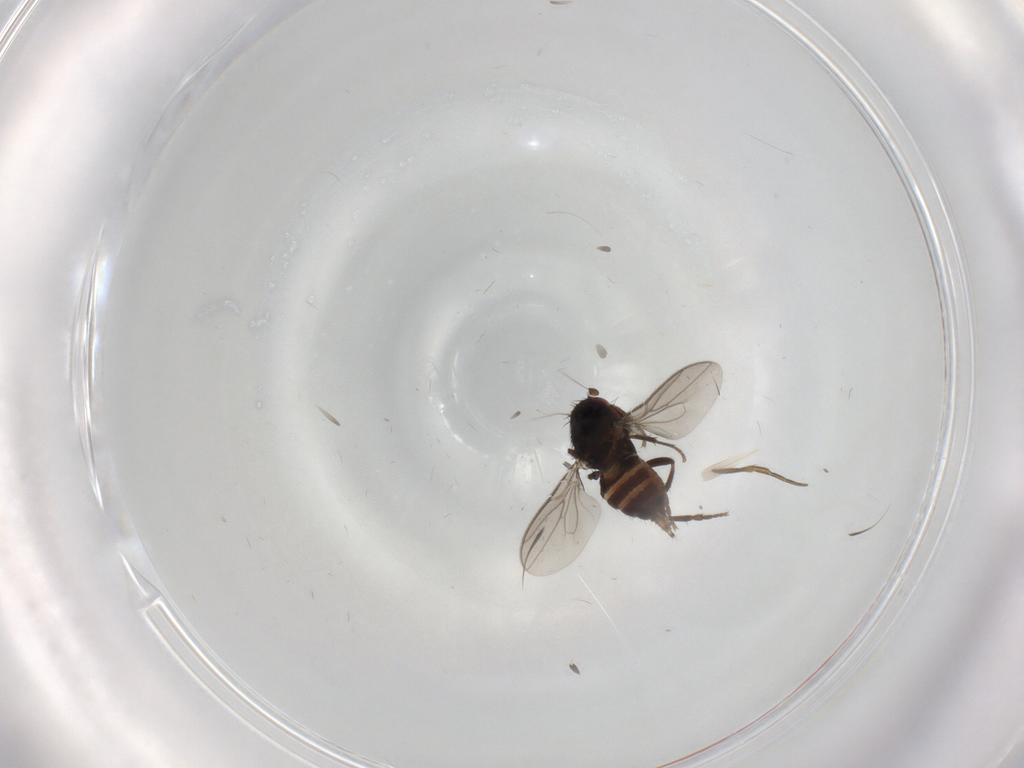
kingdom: Animalia
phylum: Arthropoda
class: Insecta
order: Diptera
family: Sphaeroceridae
